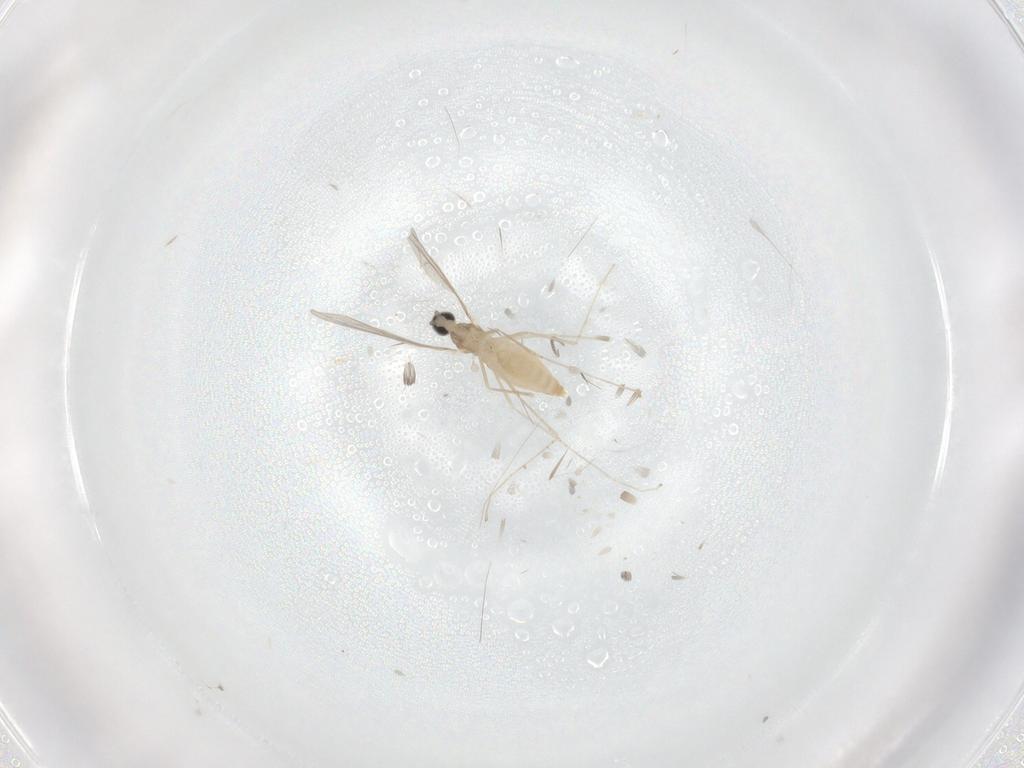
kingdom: Animalia
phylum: Arthropoda
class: Insecta
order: Diptera
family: Cecidomyiidae
